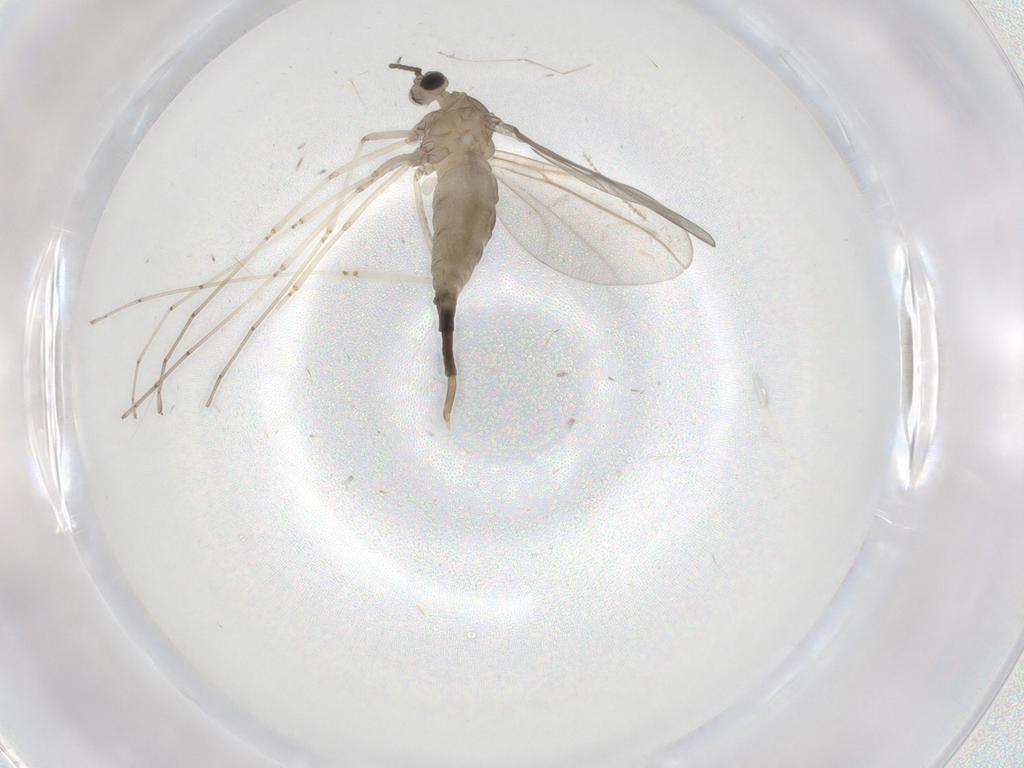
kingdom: Animalia
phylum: Arthropoda
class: Insecta
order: Diptera
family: Cecidomyiidae
